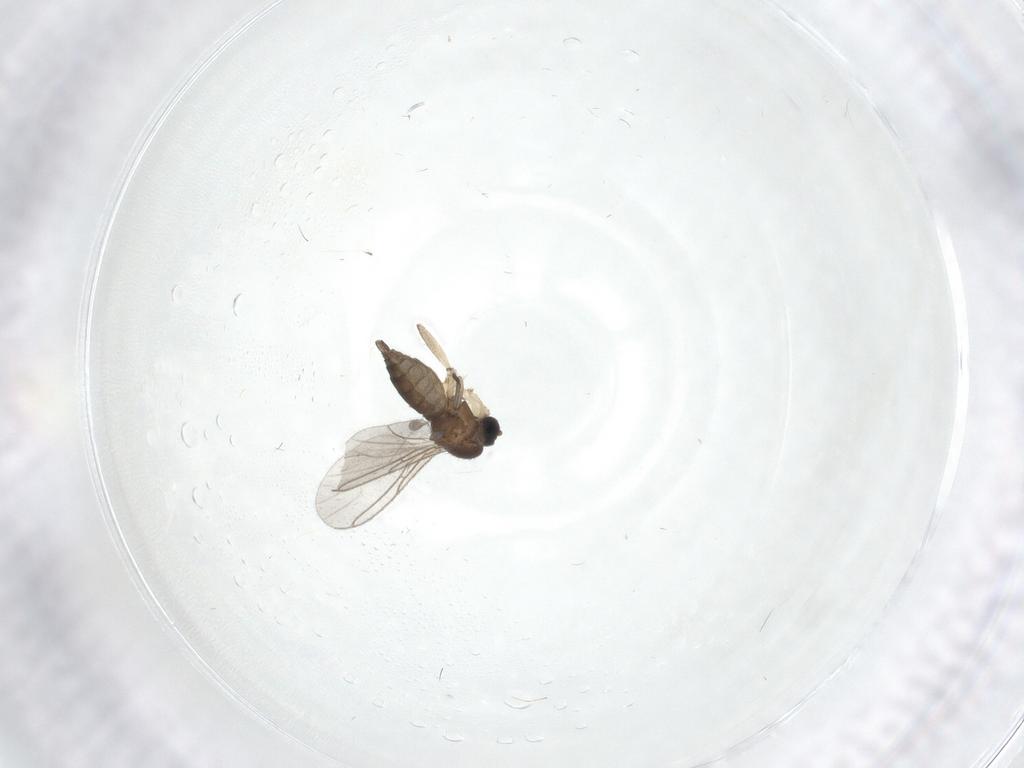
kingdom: Animalia
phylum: Arthropoda
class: Insecta
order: Diptera
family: Sciaridae
